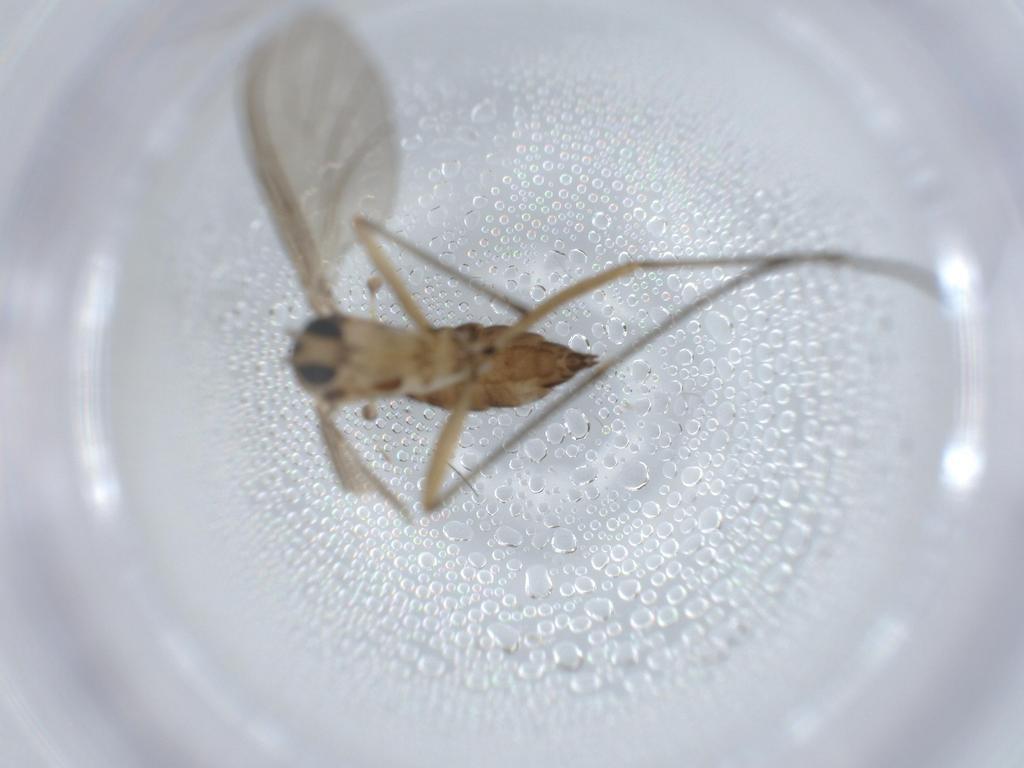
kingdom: Animalia
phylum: Arthropoda
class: Insecta
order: Diptera
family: Sciaridae
